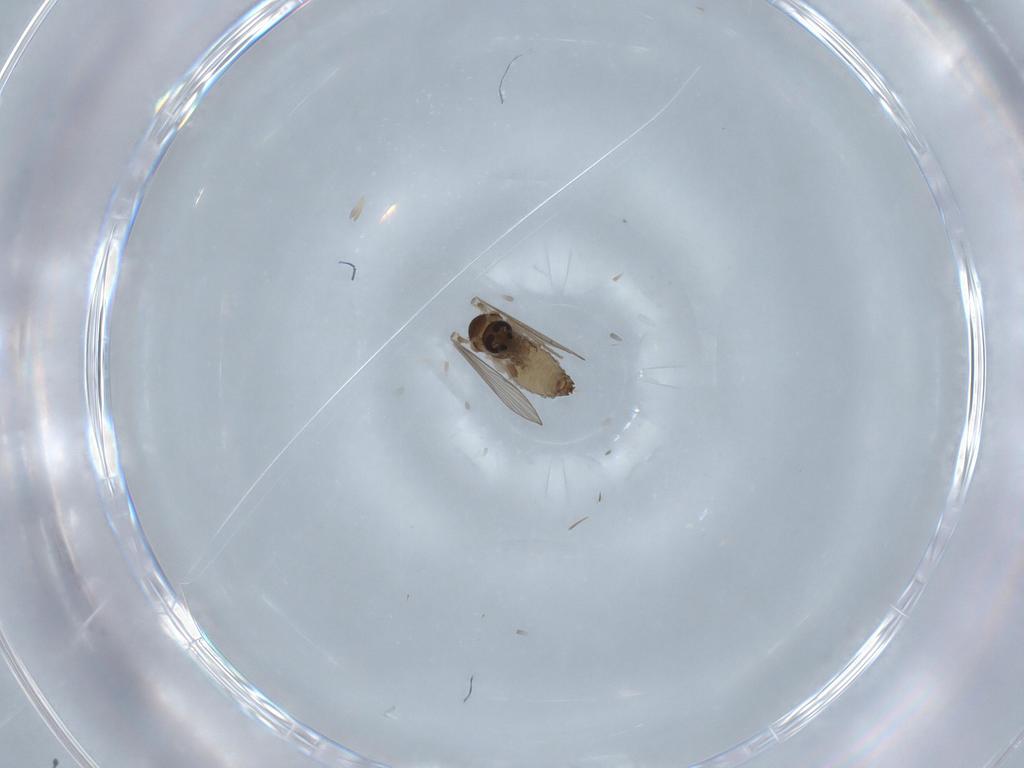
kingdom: Animalia
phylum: Arthropoda
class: Insecta
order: Diptera
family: Psychodidae
